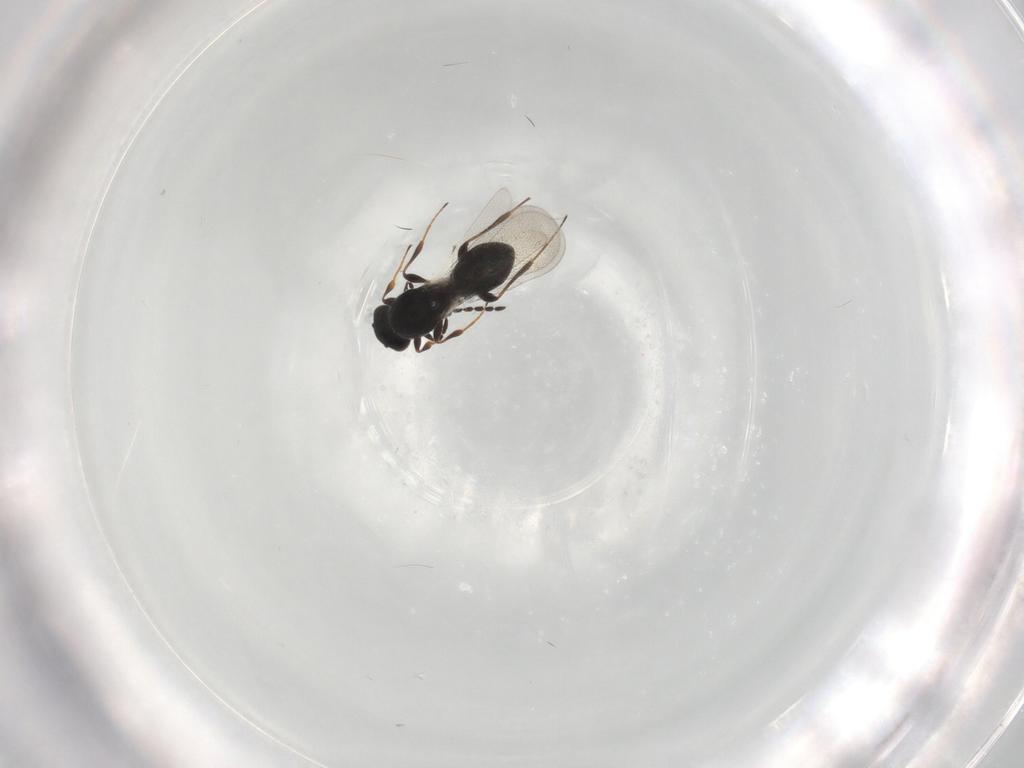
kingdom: Animalia
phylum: Arthropoda
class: Insecta
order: Hymenoptera
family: Platygastridae
